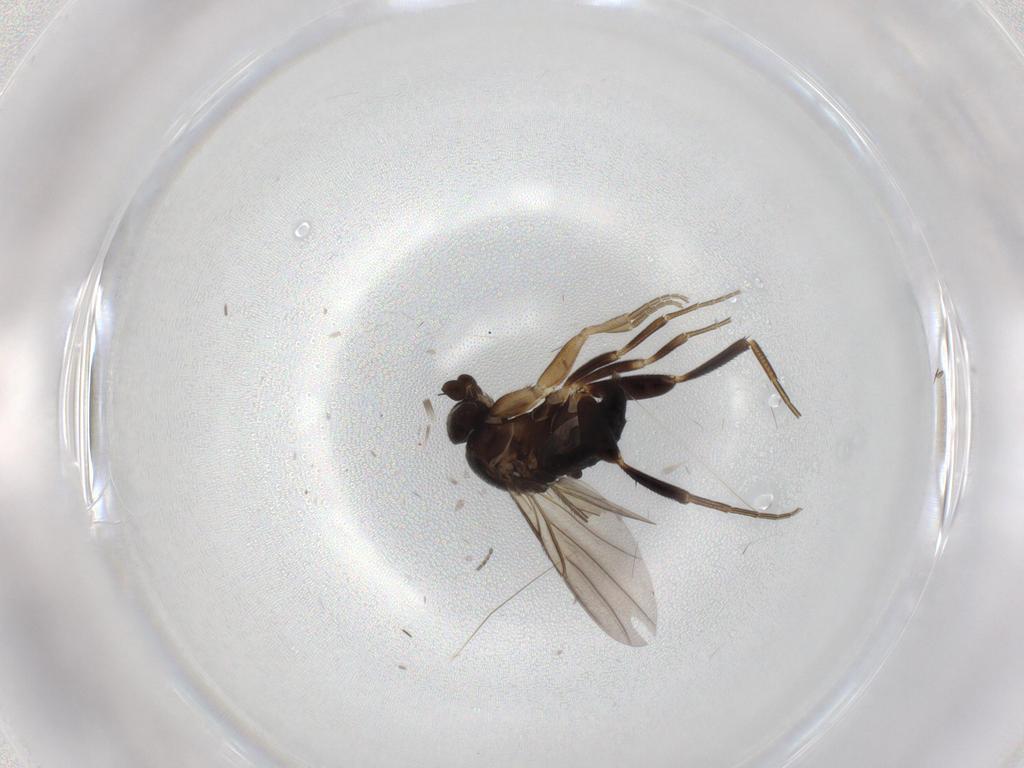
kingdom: Animalia
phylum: Arthropoda
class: Insecta
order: Diptera
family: Phoridae
